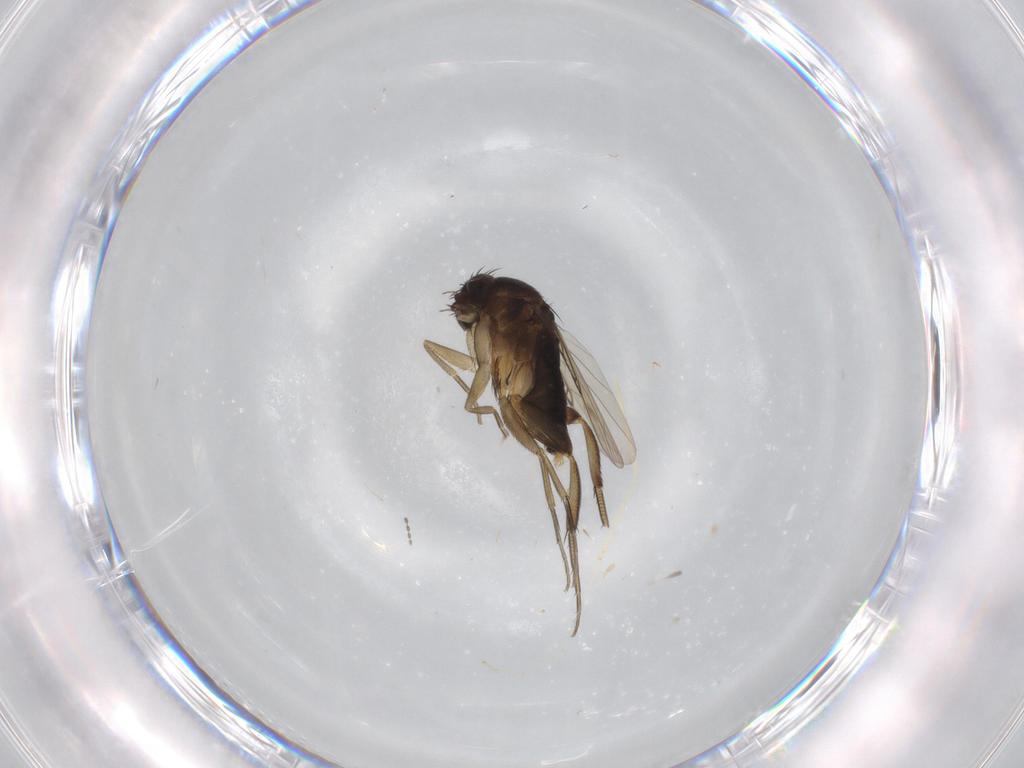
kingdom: Animalia
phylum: Arthropoda
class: Insecta
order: Diptera
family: Phoridae
